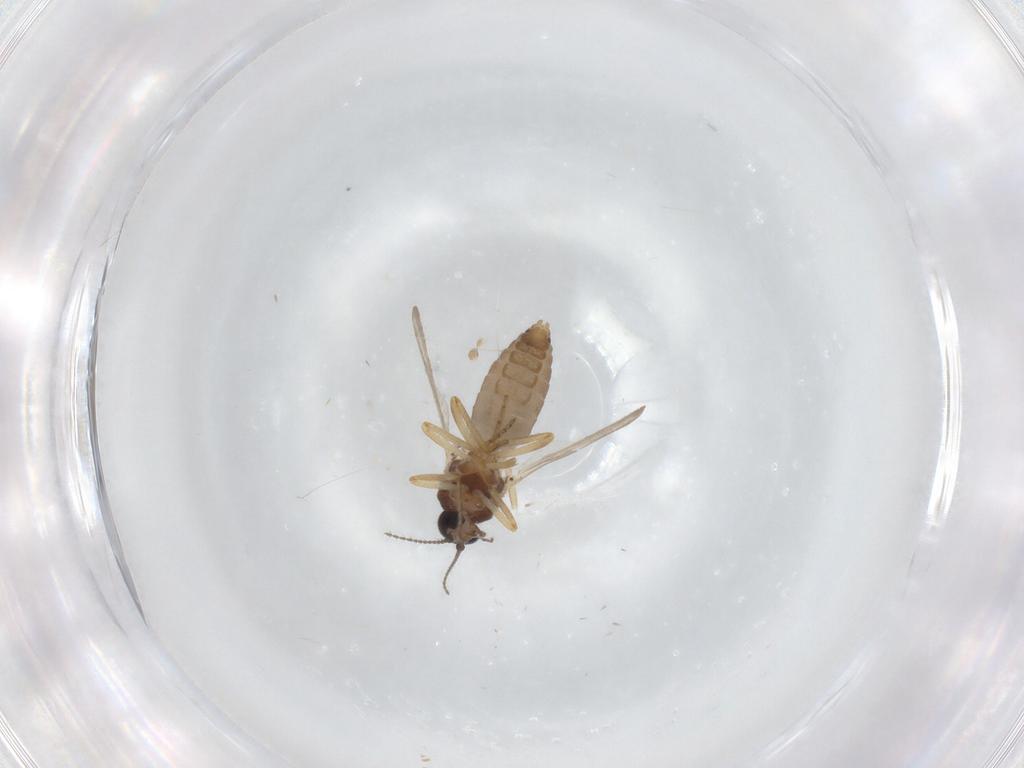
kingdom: Animalia
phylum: Arthropoda
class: Insecta
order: Diptera
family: Ceratopogonidae
